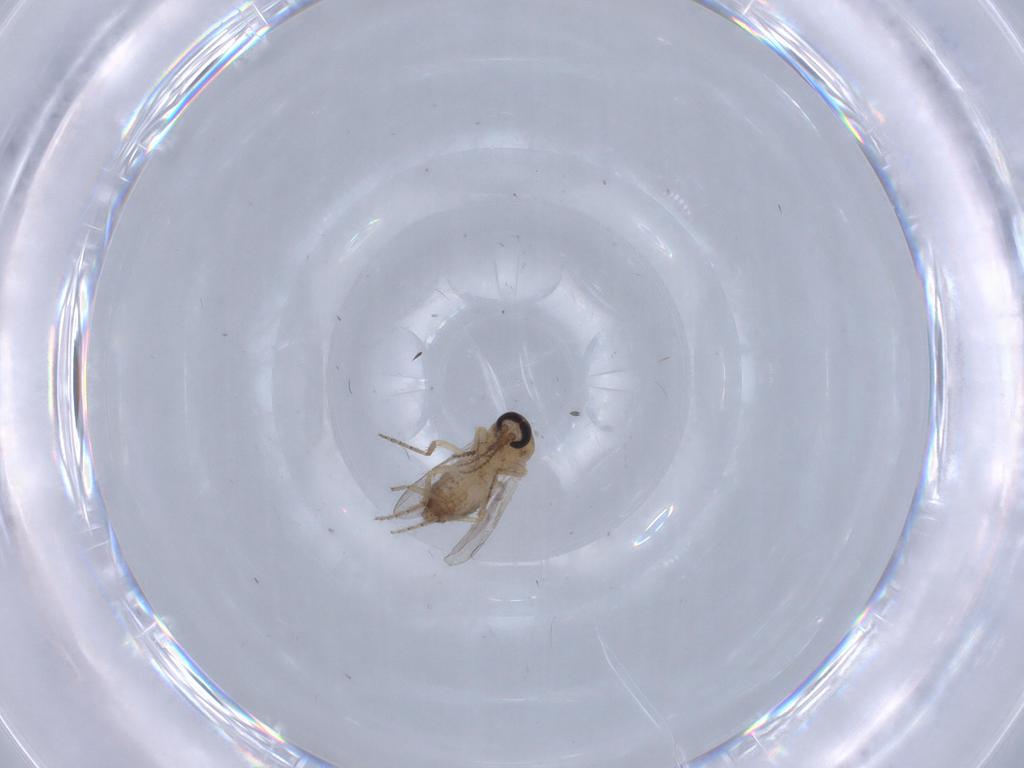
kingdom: Animalia
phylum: Arthropoda
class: Insecta
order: Diptera
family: Ceratopogonidae
